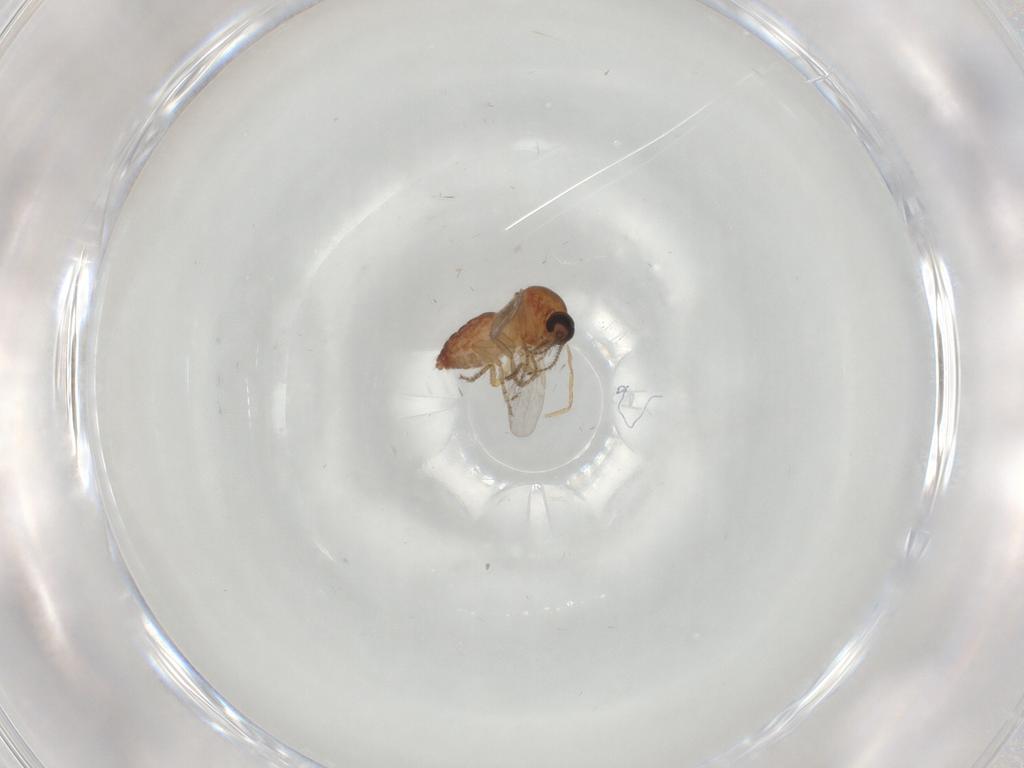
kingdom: Animalia
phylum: Arthropoda
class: Insecta
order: Diptera
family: Ceratopogonidae
